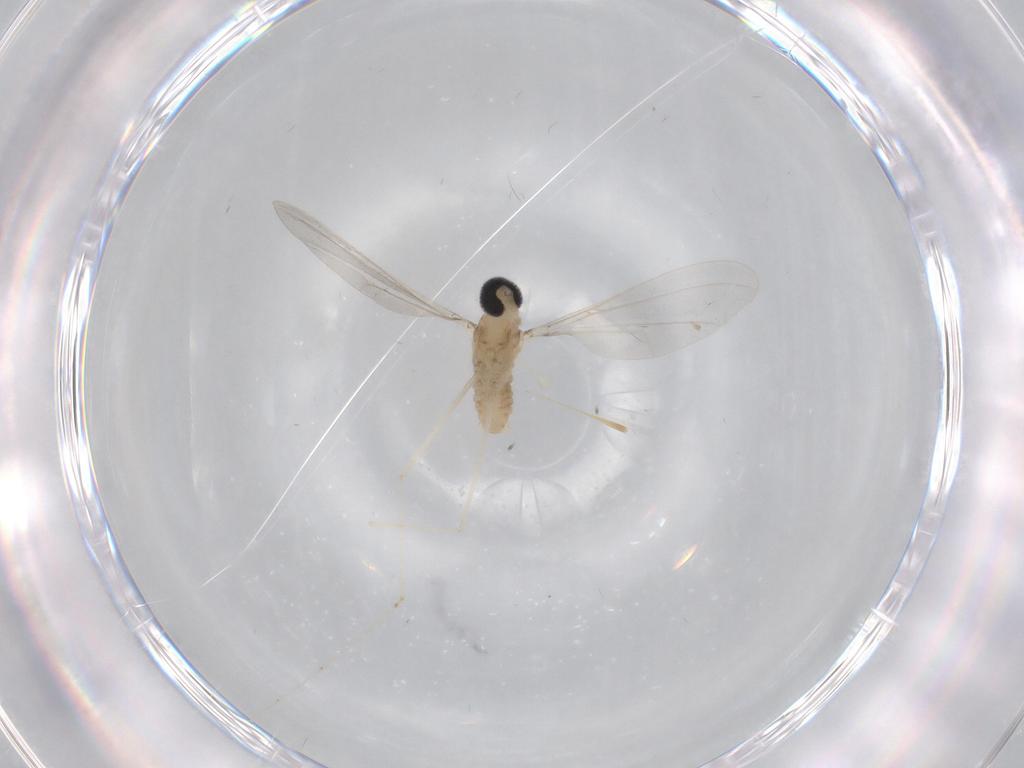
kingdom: Animalia
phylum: Arthropoda
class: Insecta
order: Diptera
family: Cecidomyiidae
